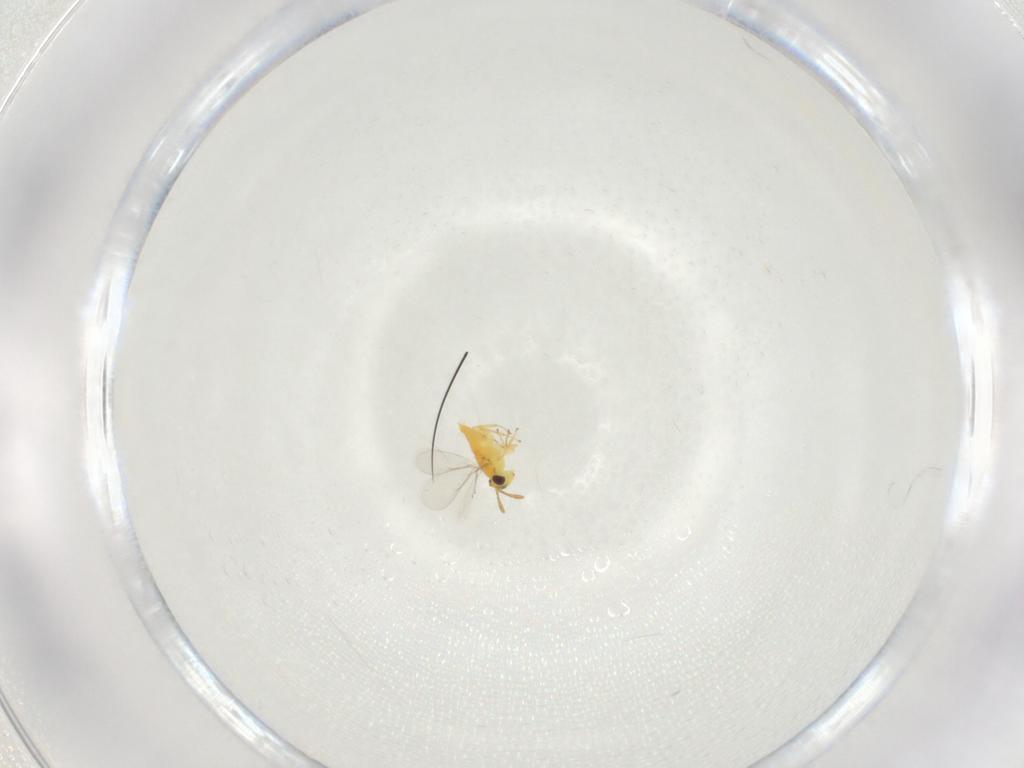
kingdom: Animalia
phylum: Arthropoda
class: Insecta
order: Hymenoptera
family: Aphelinidae
